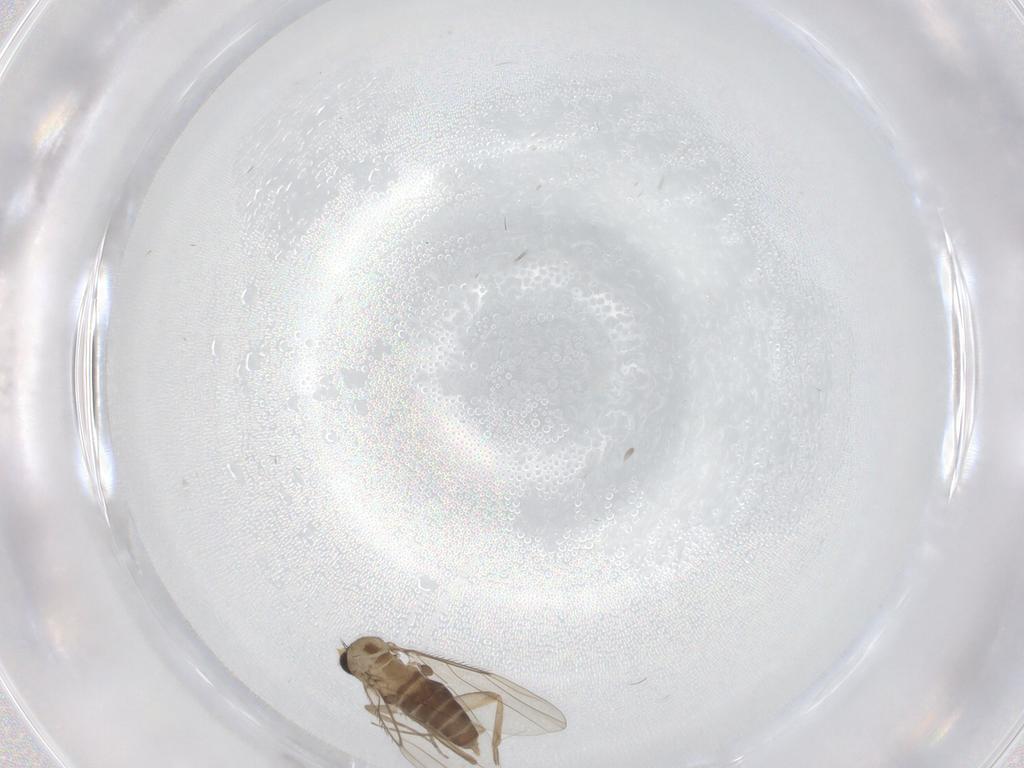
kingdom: Animalia
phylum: Arthropoda
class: Insecta
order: Diptera
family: Phoridae
